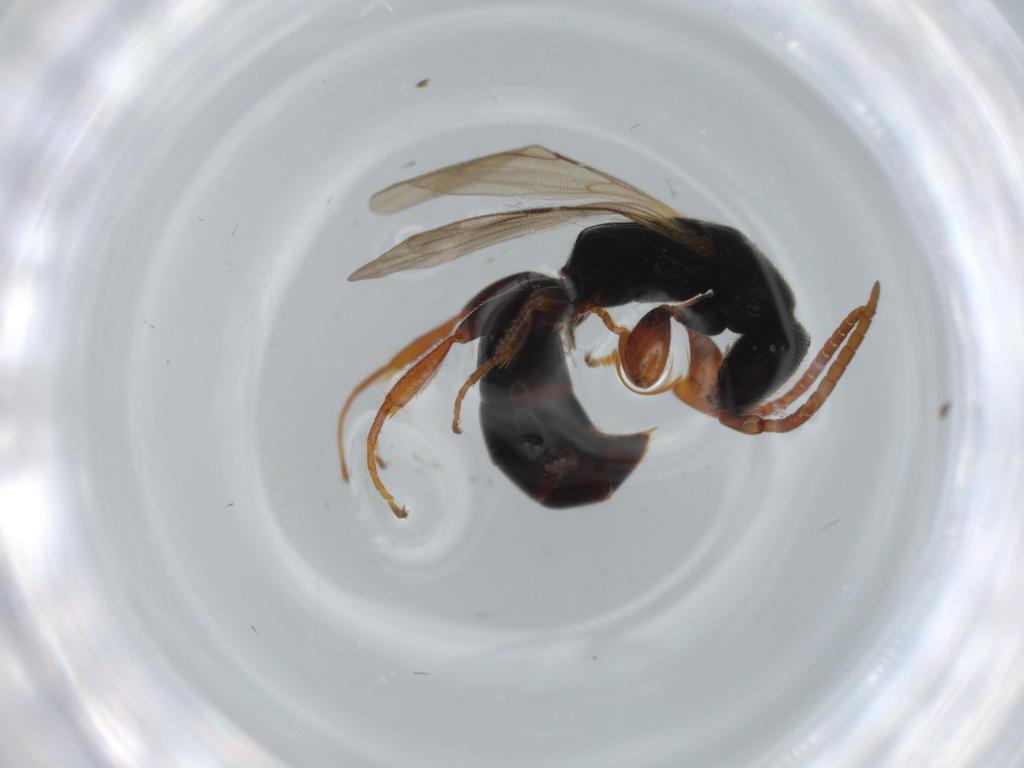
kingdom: Animalia
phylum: Arthropoda
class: Insecta
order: Hymenoptera
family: Bethylidae
